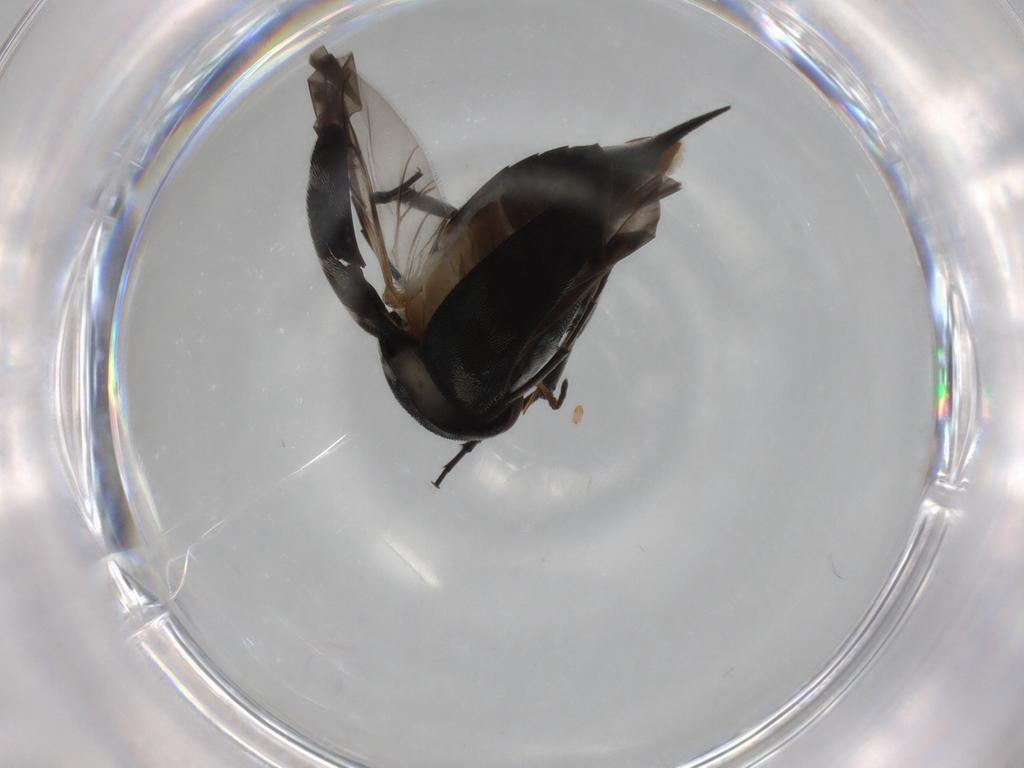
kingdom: Animalia
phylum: Arthropoda
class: Insecta
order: Coleoptera
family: Mordellidae
